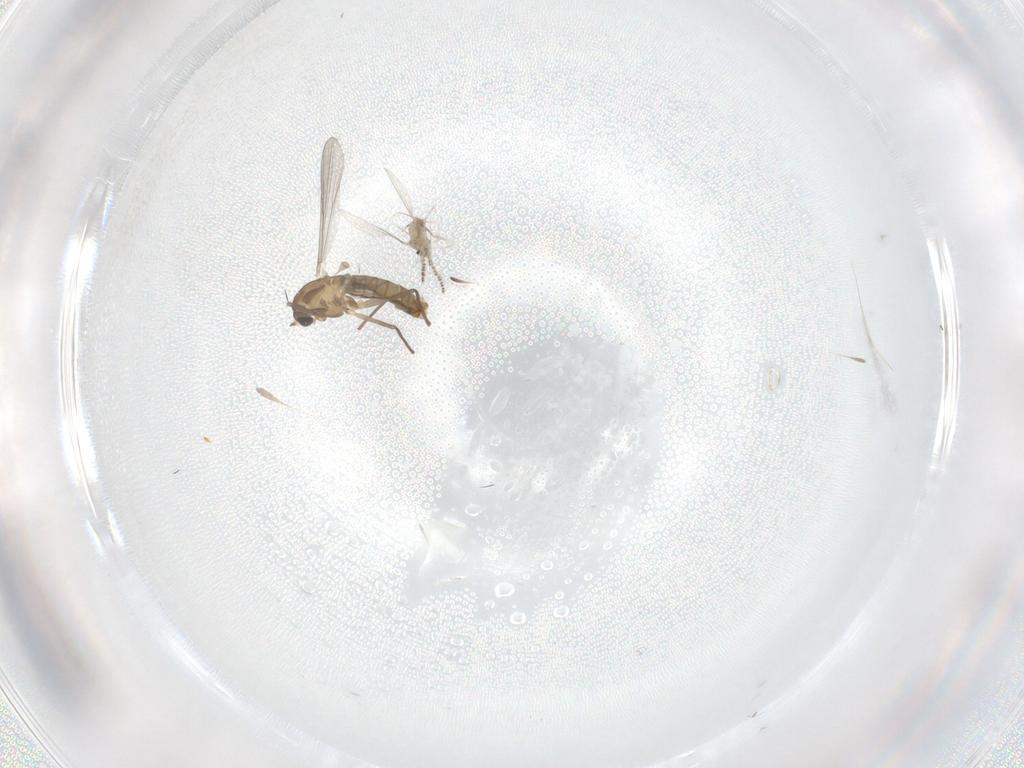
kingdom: Animalia
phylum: Arthropoda
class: Insecta
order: Diptera
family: Cecidomyiidae
